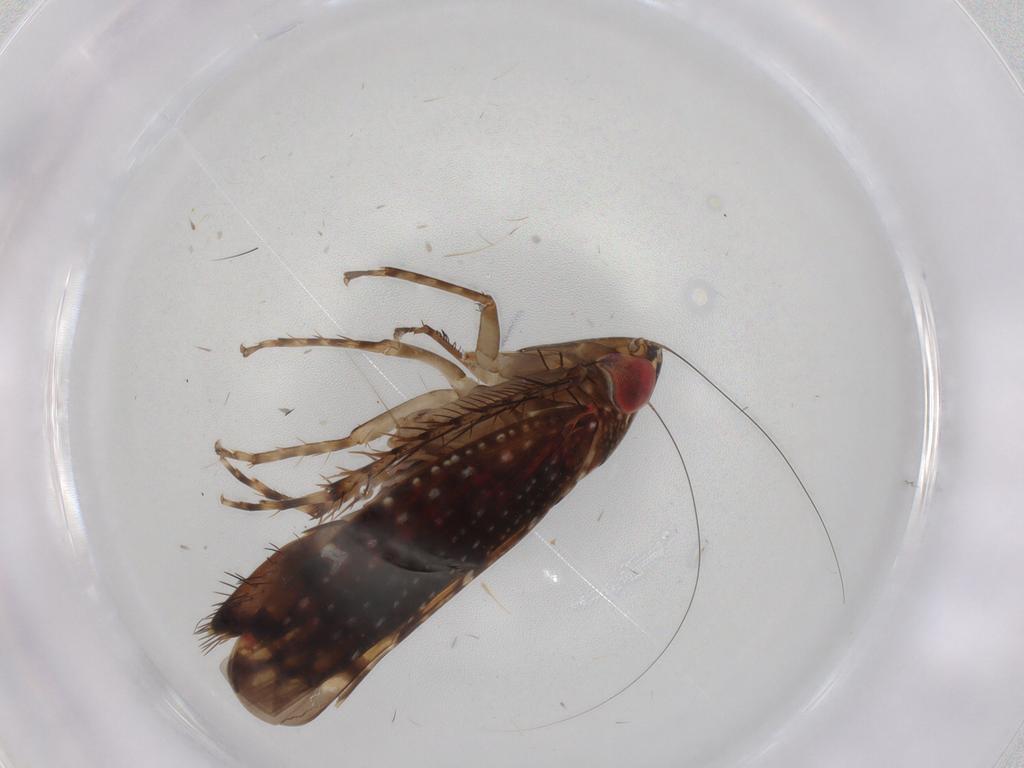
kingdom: Animalia
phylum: Arthropoda
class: Insecta
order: Hemiptera
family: Cicadellidae
